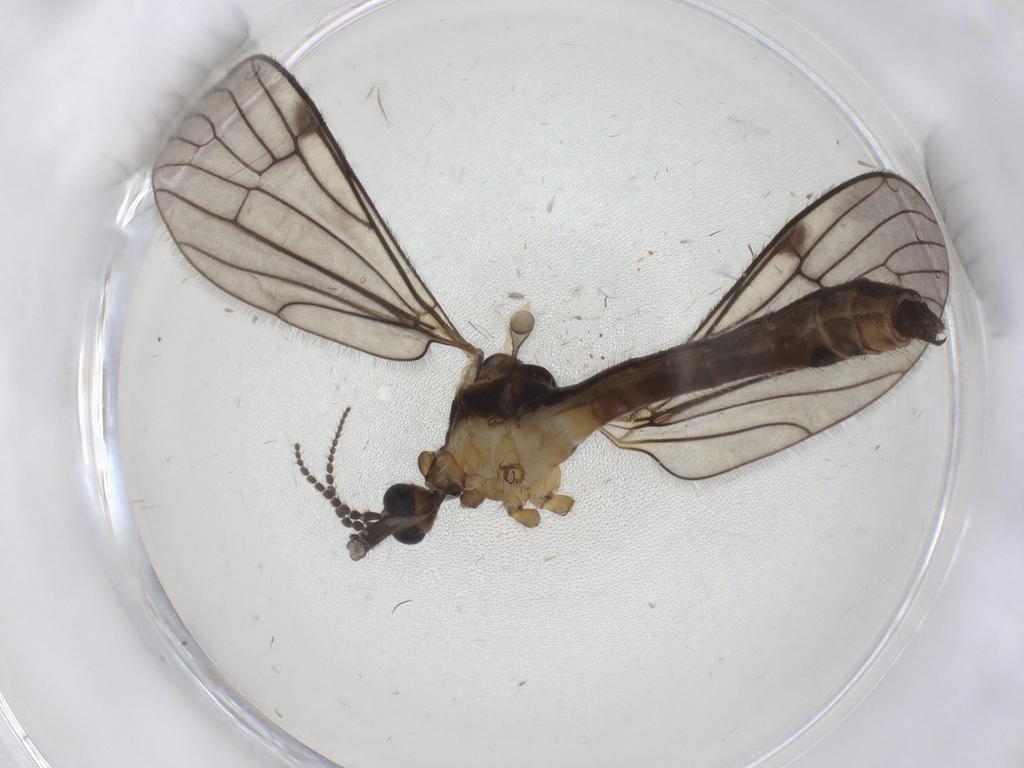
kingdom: Animalia
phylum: Arthropoda
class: Insecta
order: Diptera
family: Limoniidae
